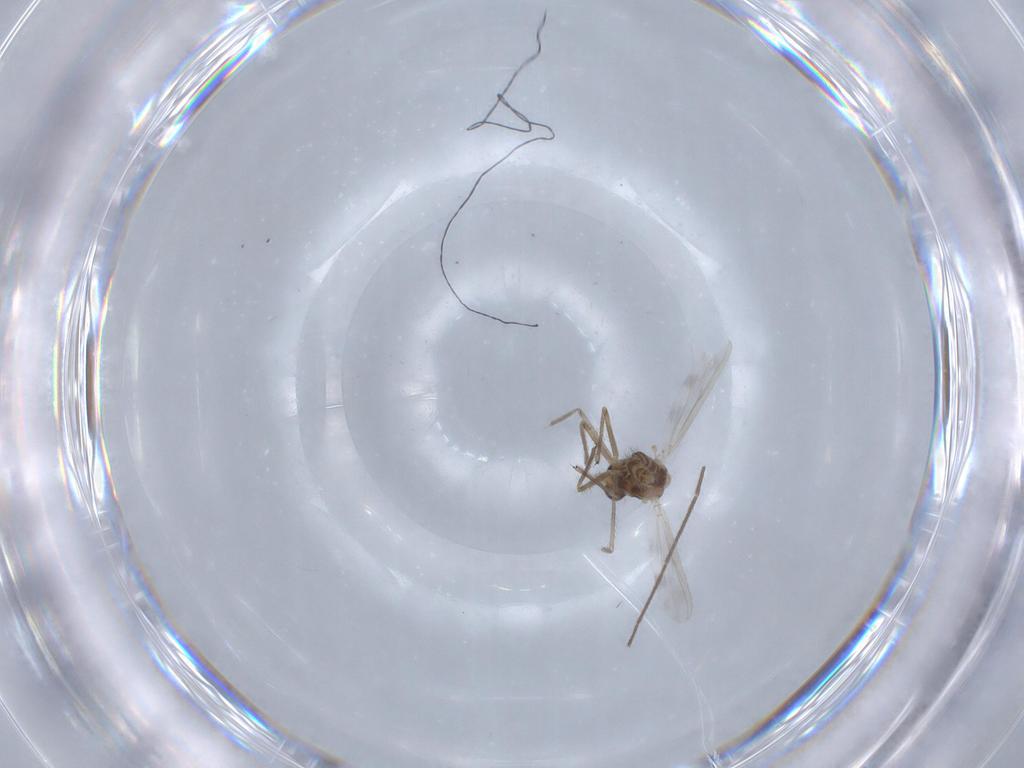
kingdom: Animalia
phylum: Arthropoda
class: Insecta
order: Diptera
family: Chironomidae
